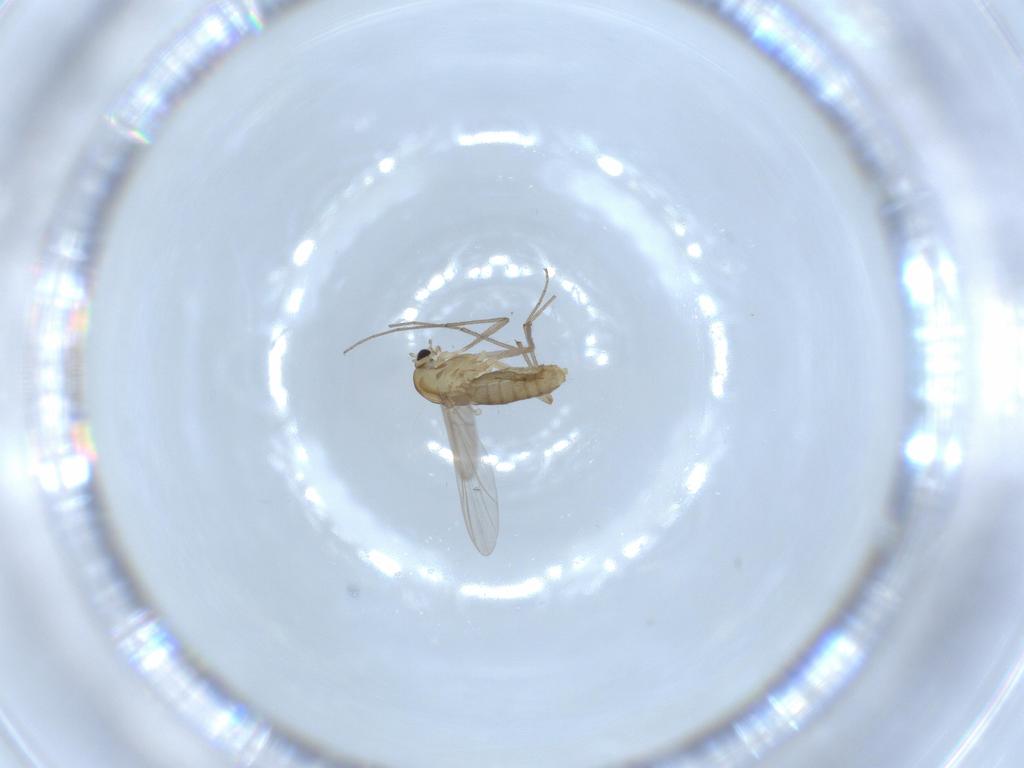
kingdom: Animalia
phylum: Arthropoda
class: Insecta
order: Diptera
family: Chironomidae
